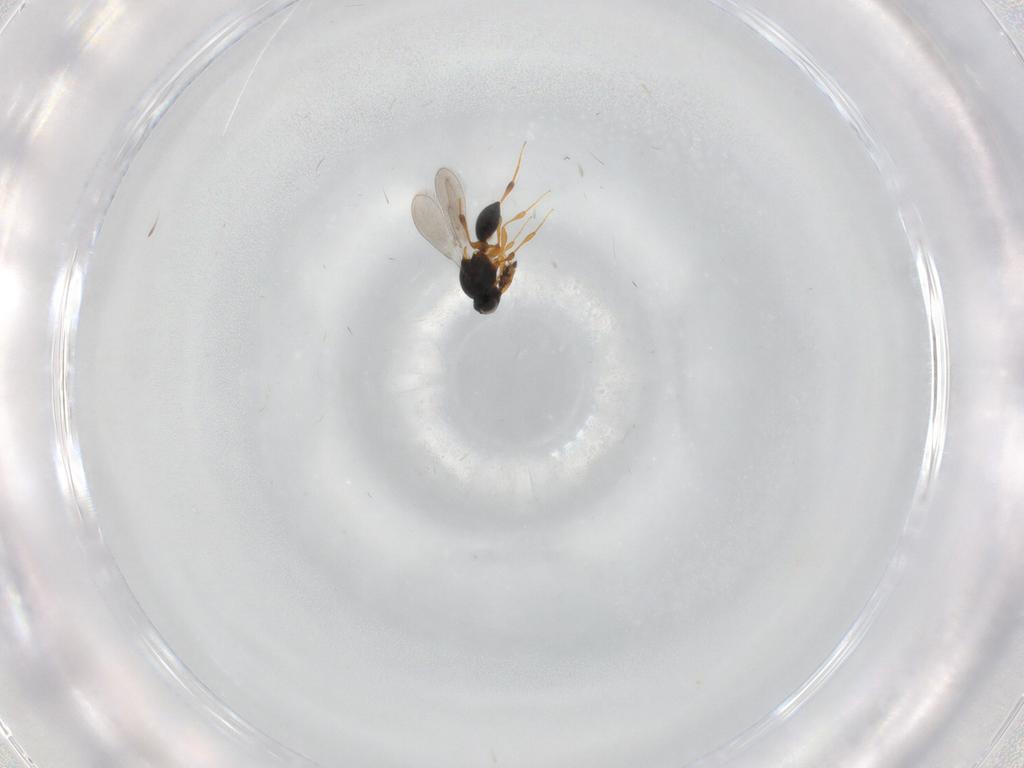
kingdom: Animalia
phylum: Arthropoda
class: Insecta
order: Hymenoptera
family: Platygastridae
